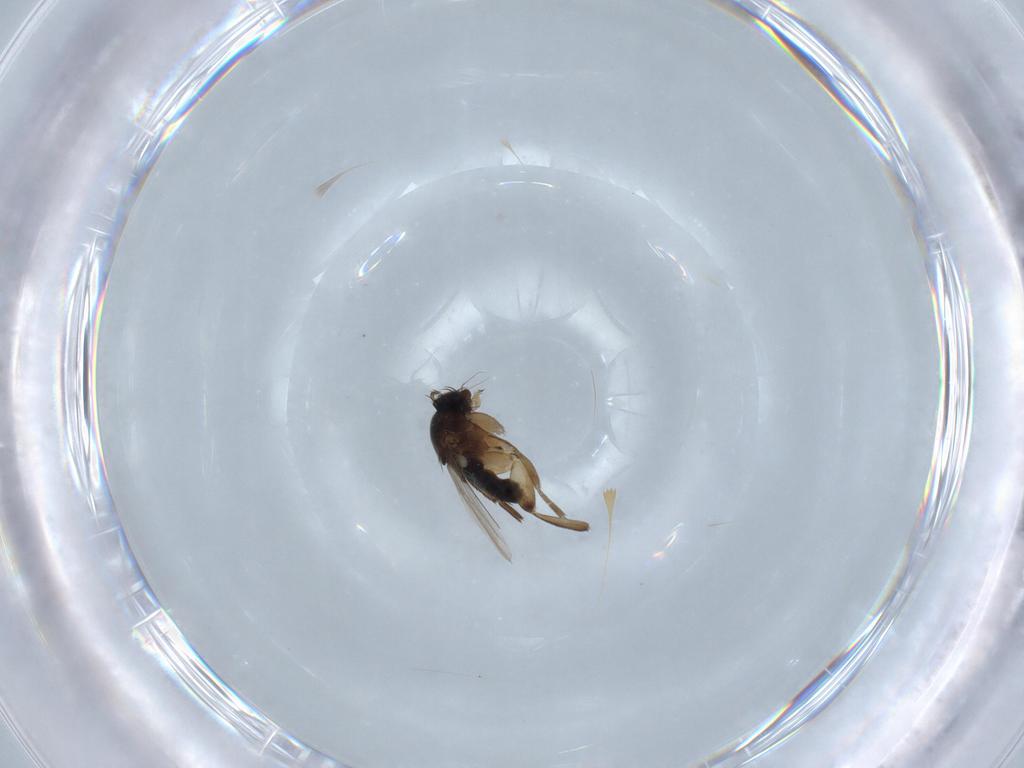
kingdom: Animalia
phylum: Arthropoda
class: Insecta
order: Diptera
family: Phoridae
